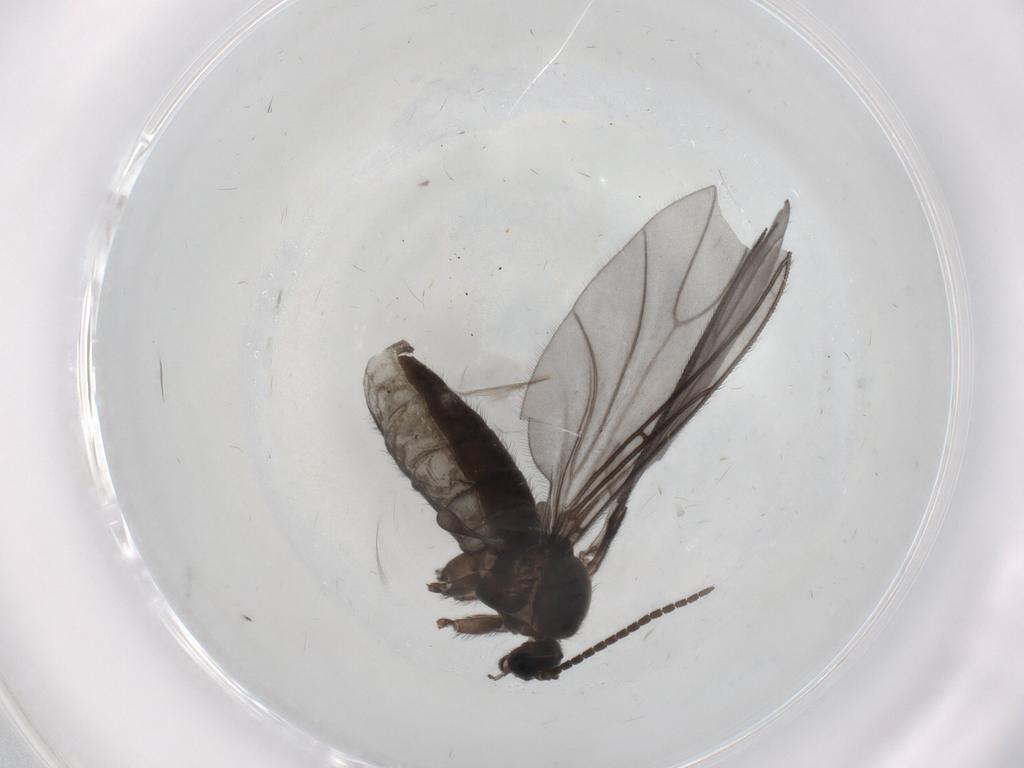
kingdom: Animalia
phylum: Arthropoda
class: Insecta
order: Diptera
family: Sciaridae
